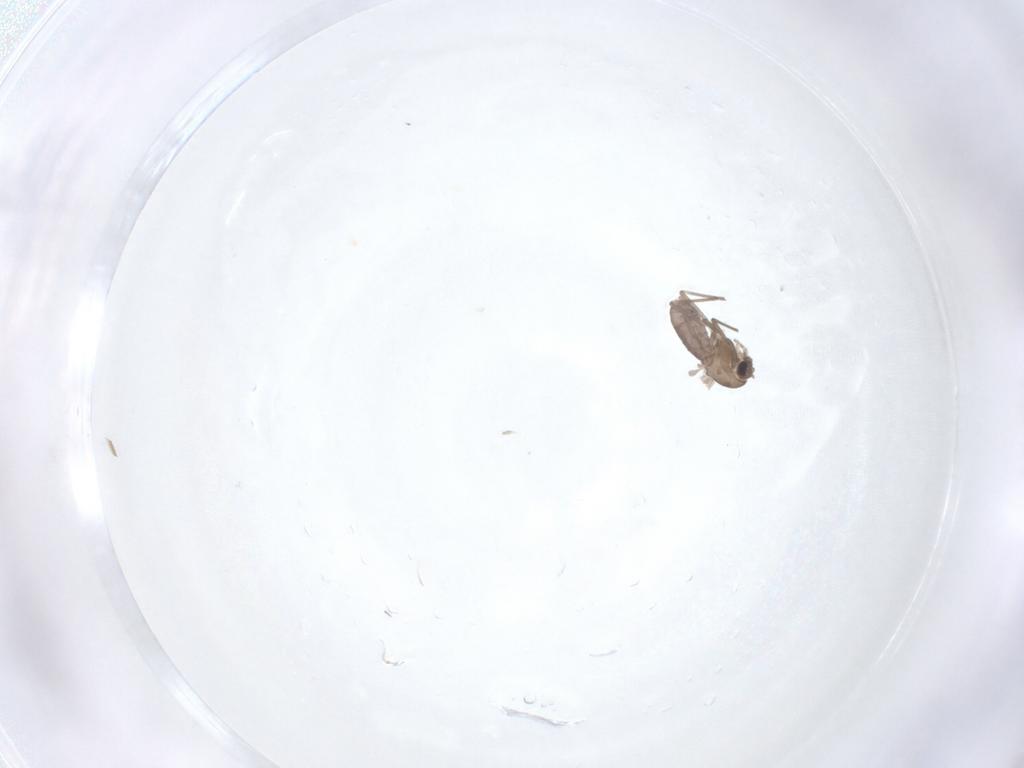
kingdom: Animalia
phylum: Arthropoda
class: Insecta
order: Diptera
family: Chironomidae
